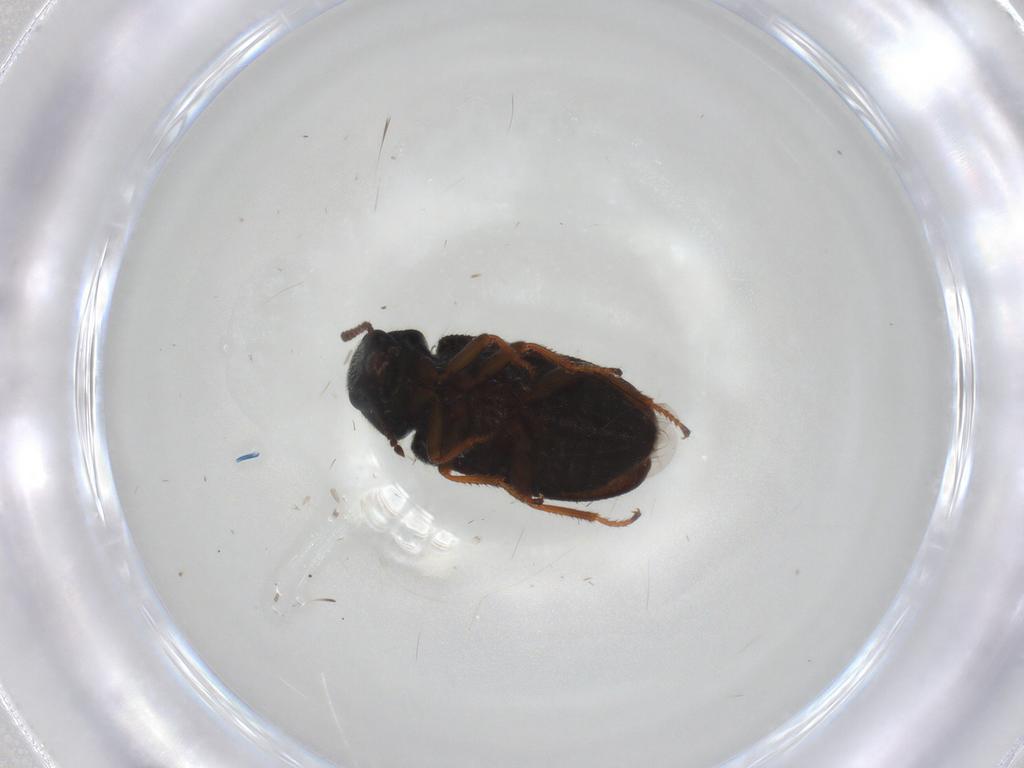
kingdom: Animalia
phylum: Arthropoda
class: Insecta
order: Coleoptera
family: Melyridae
